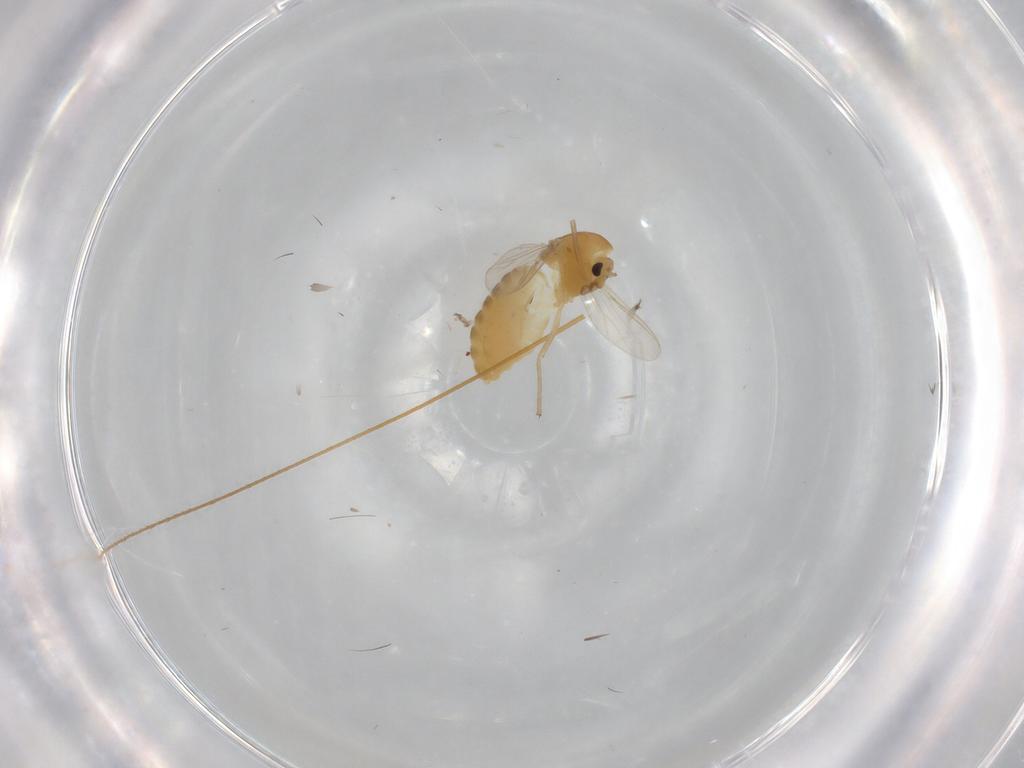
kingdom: Animalia
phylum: Arthropoda
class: Insecta
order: Diptera
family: Chironomidae
